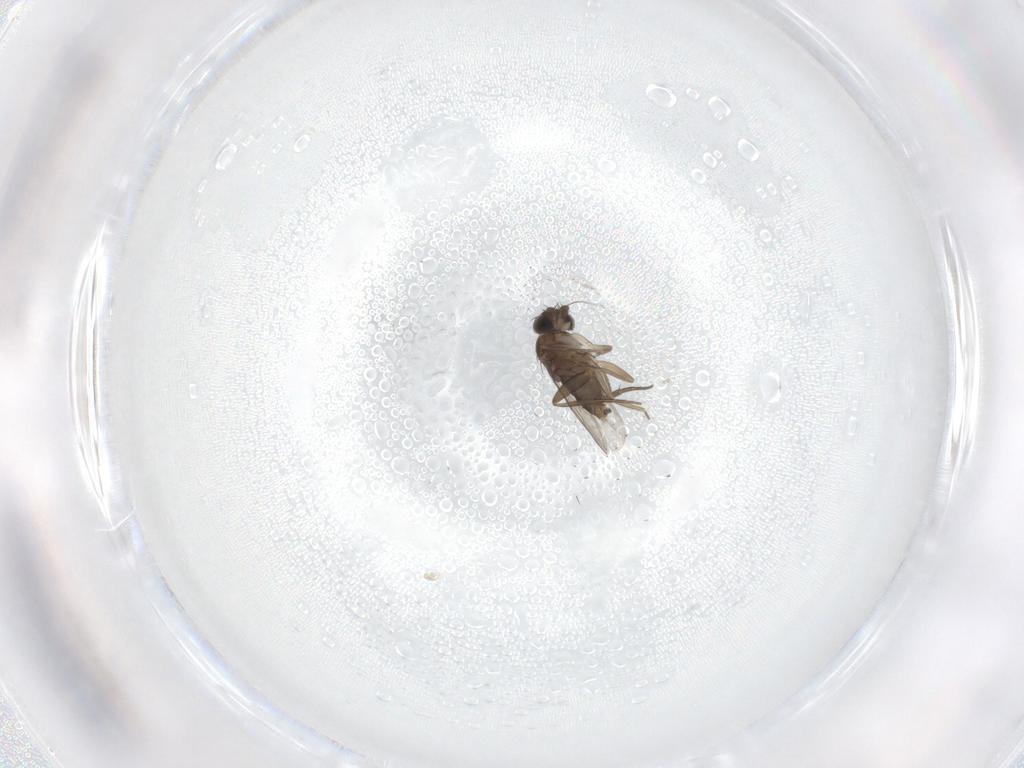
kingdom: Animalia
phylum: Arthropoda
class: Insecta
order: Diptera
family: Phoridae
